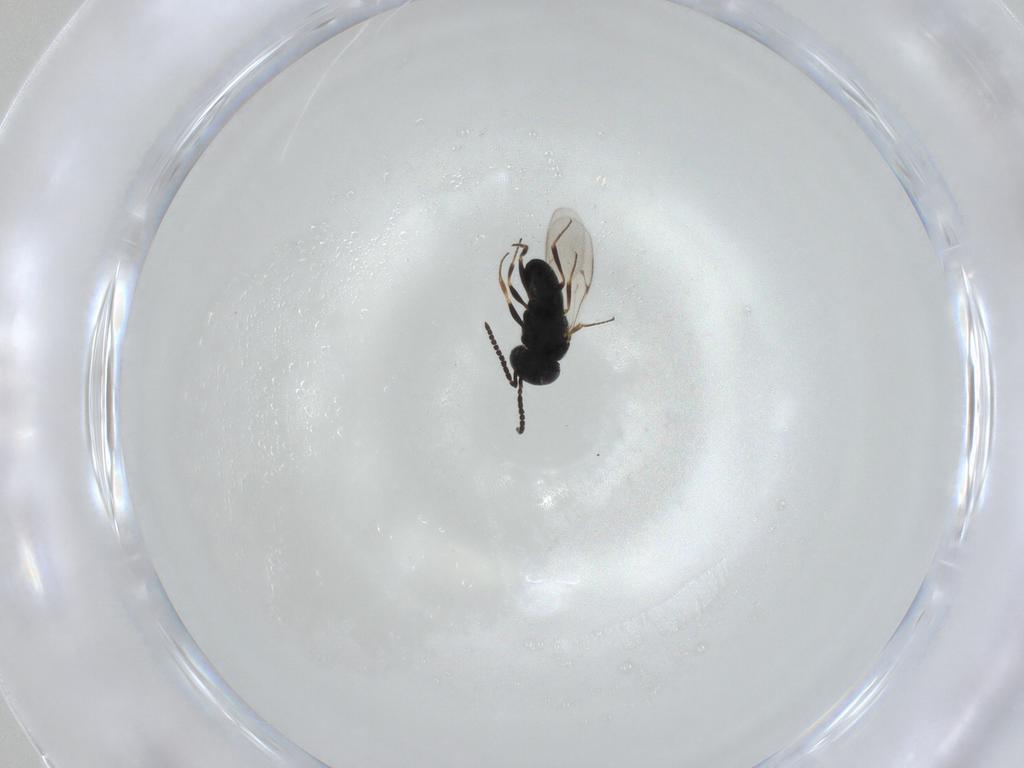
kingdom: Animalia
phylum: Arthropoda
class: Insecta
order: Hymenoptera
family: Scelionidae
